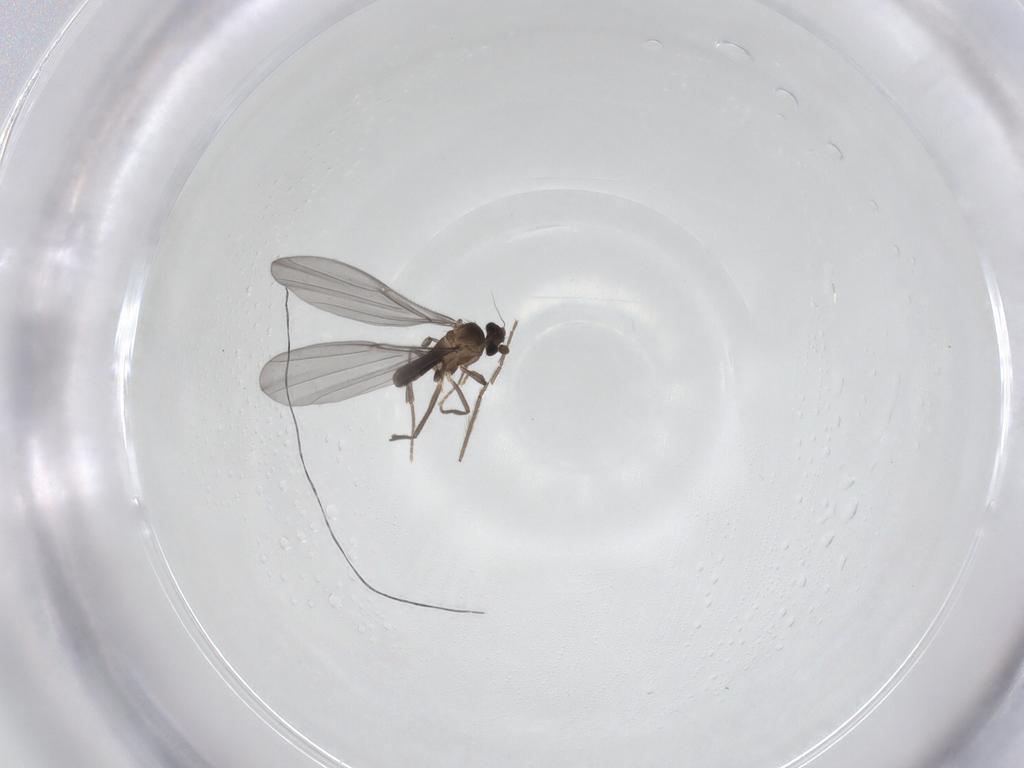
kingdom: Animalia
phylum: Arthropoda
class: Insecta
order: Diptera
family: Phoridae
